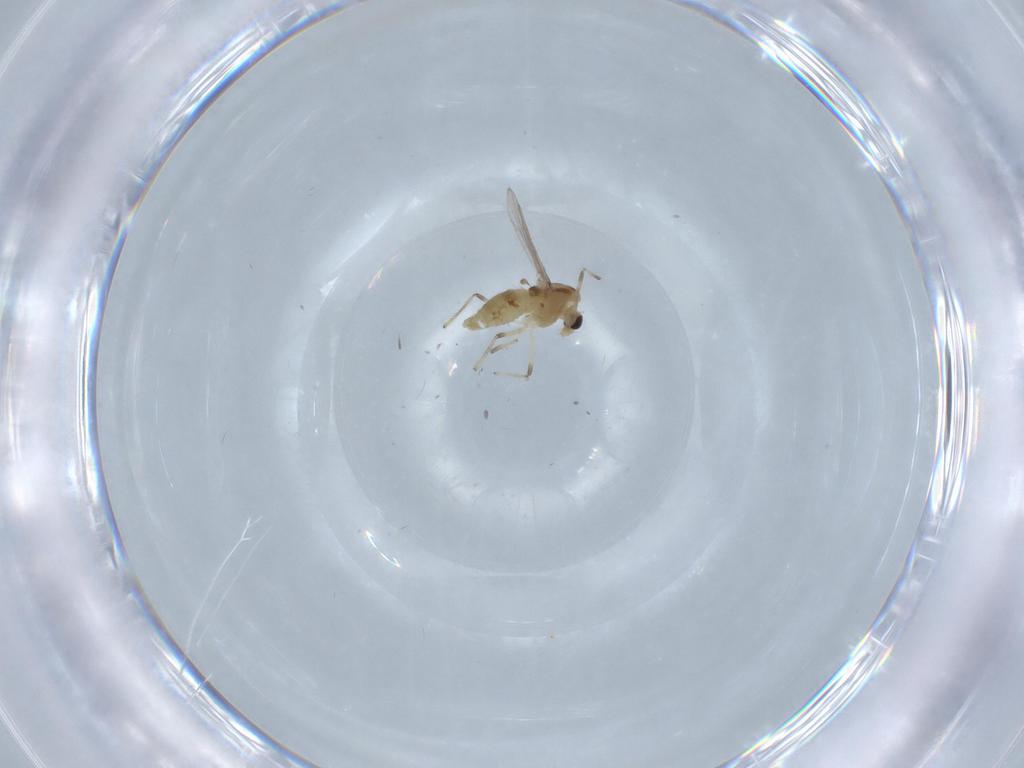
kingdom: Animalia
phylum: Arthropoda
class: Insecta
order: Diptera
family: Chironomidae
